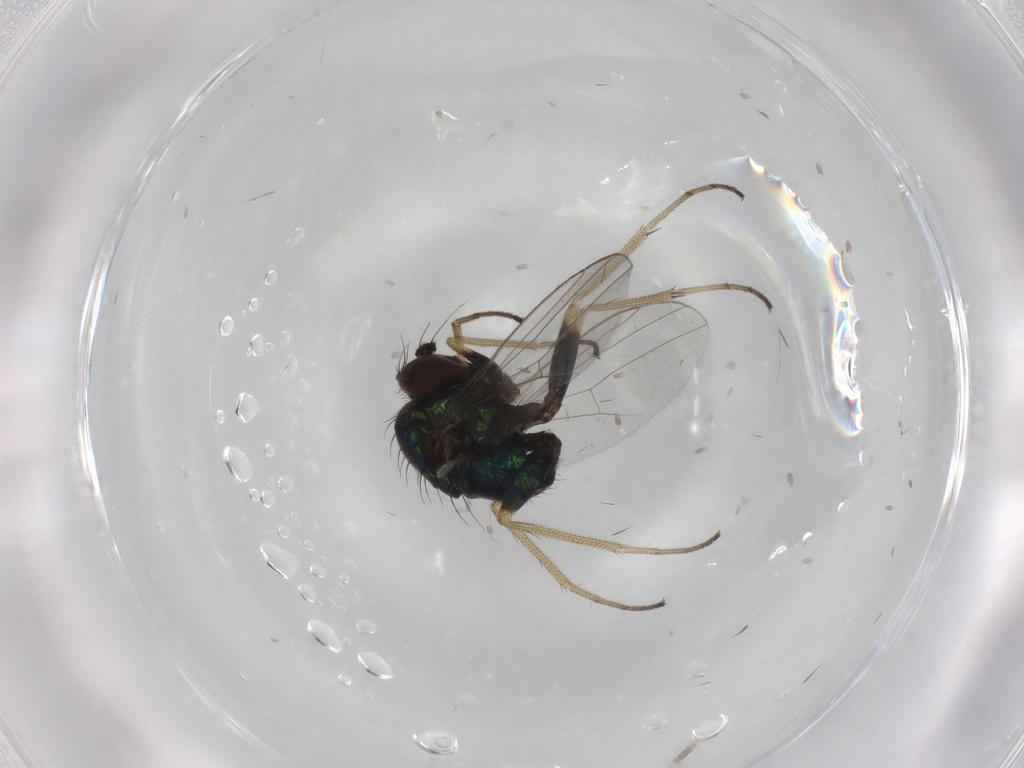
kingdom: Animalia
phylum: Arthropoda
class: Insecta
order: Diptera
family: Dolichopodidae
